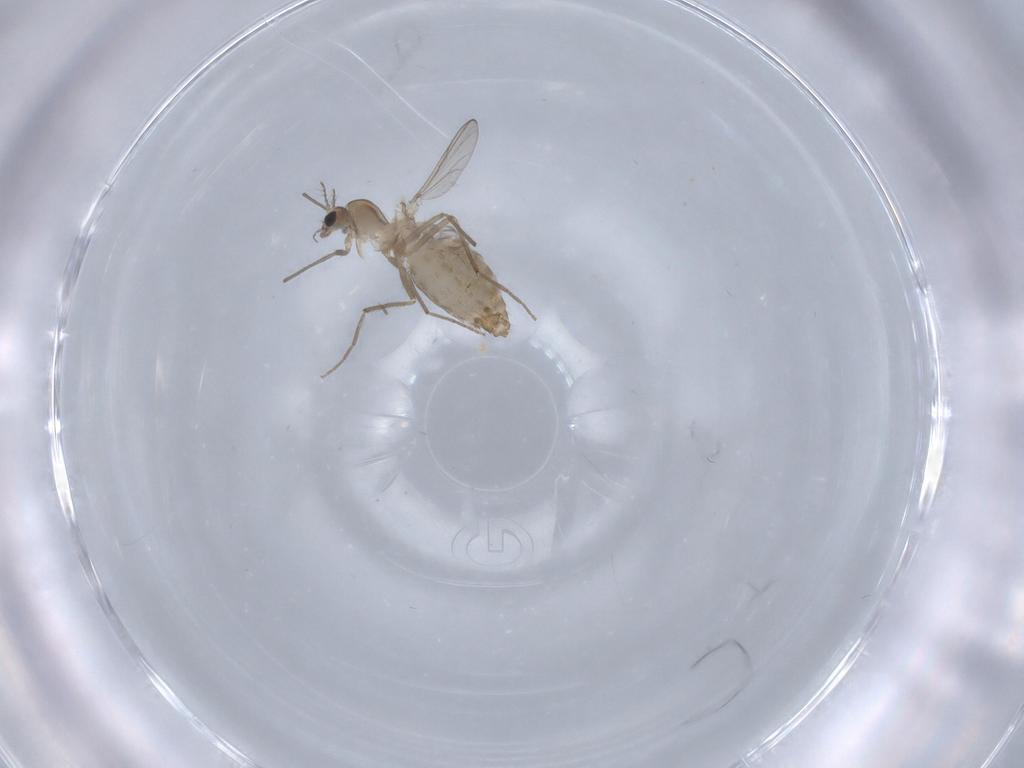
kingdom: Animalia
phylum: Arthropoda
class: Insecta
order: Diptera
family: Chironomidae
